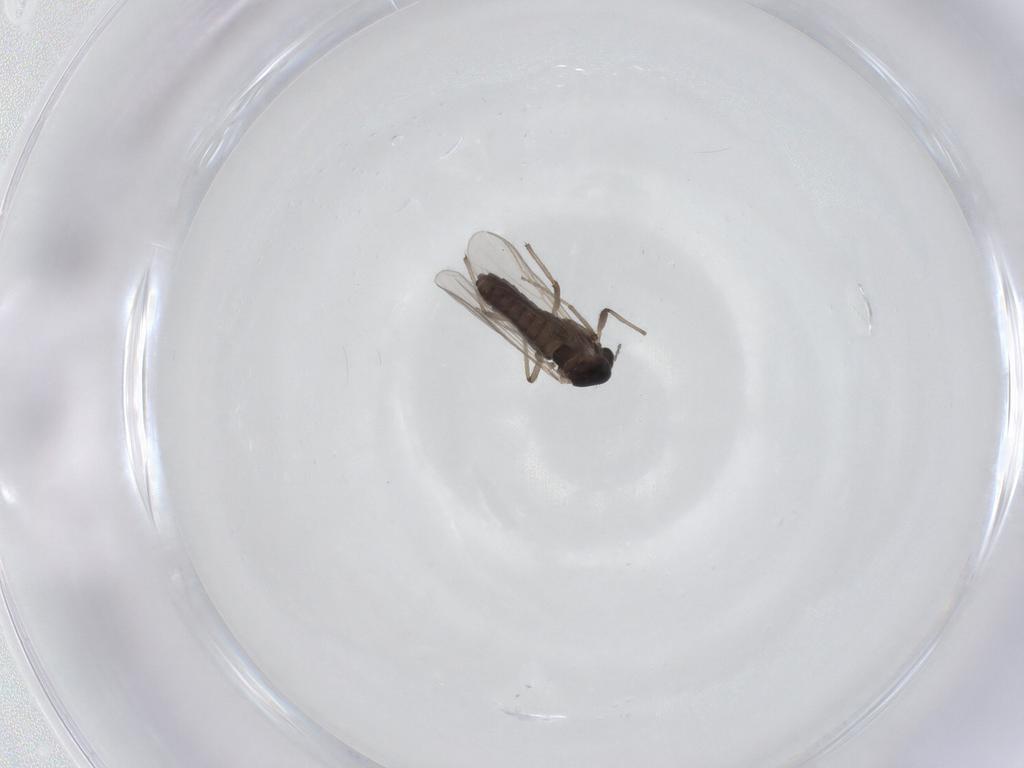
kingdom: Animalia
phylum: Arthropoda
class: Insecta
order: Diptera
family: Chironomidae
